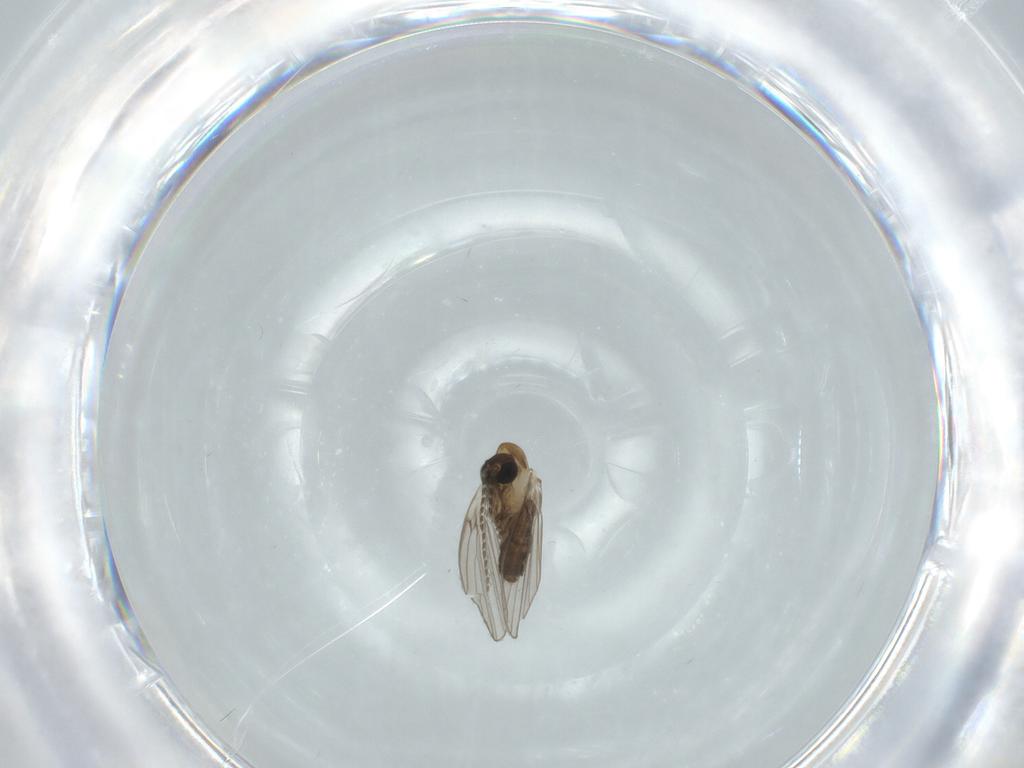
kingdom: Animalia
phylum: Arthropoda
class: Insecta
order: Diptera
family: Psychodidae
